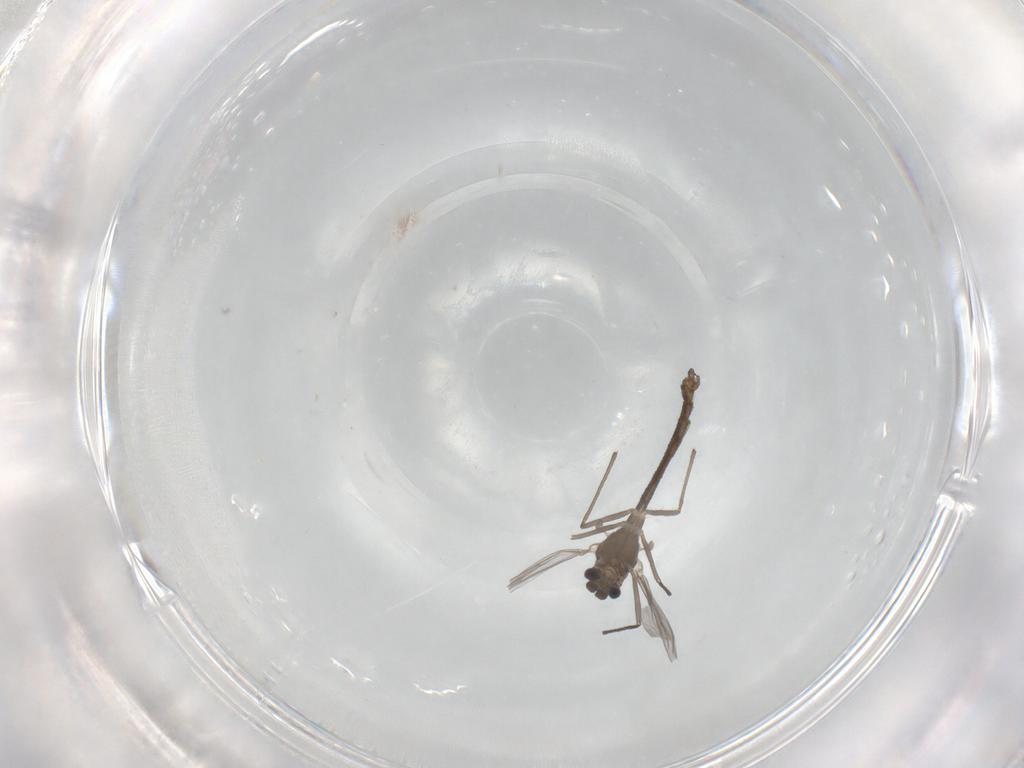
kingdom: Animalia
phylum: Arthropoda
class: Insecta
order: Diptera
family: Chironomidae
